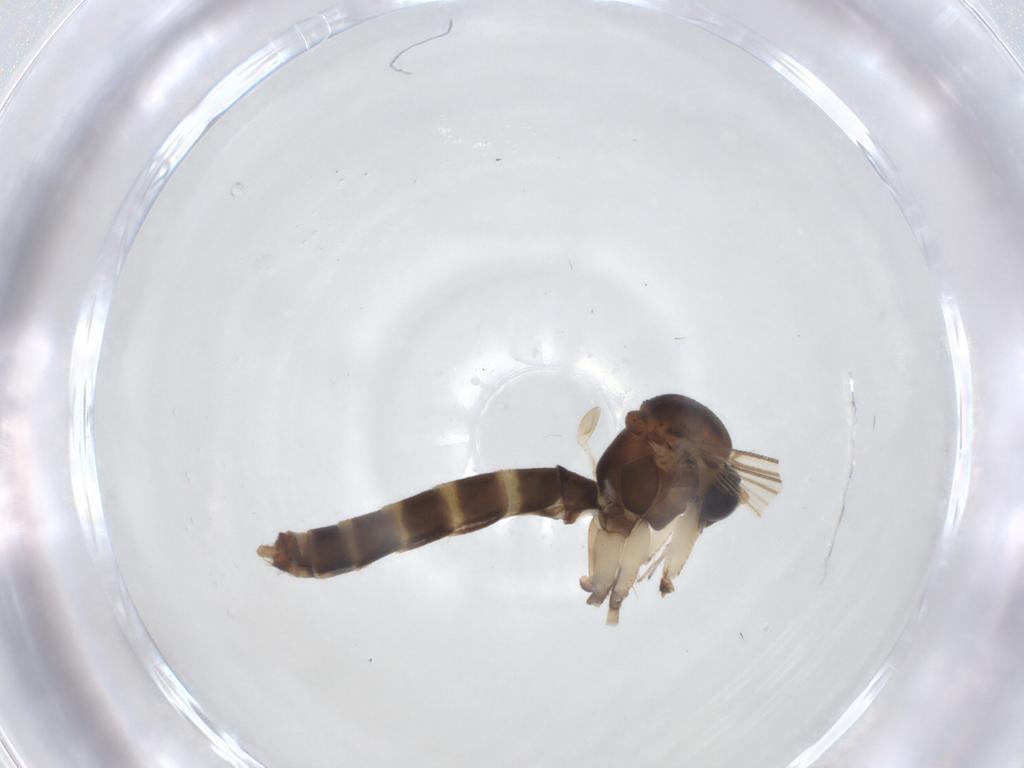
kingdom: Animalia
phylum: Arthropoda
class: Insecta
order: Diptera
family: Mycetophilidae
